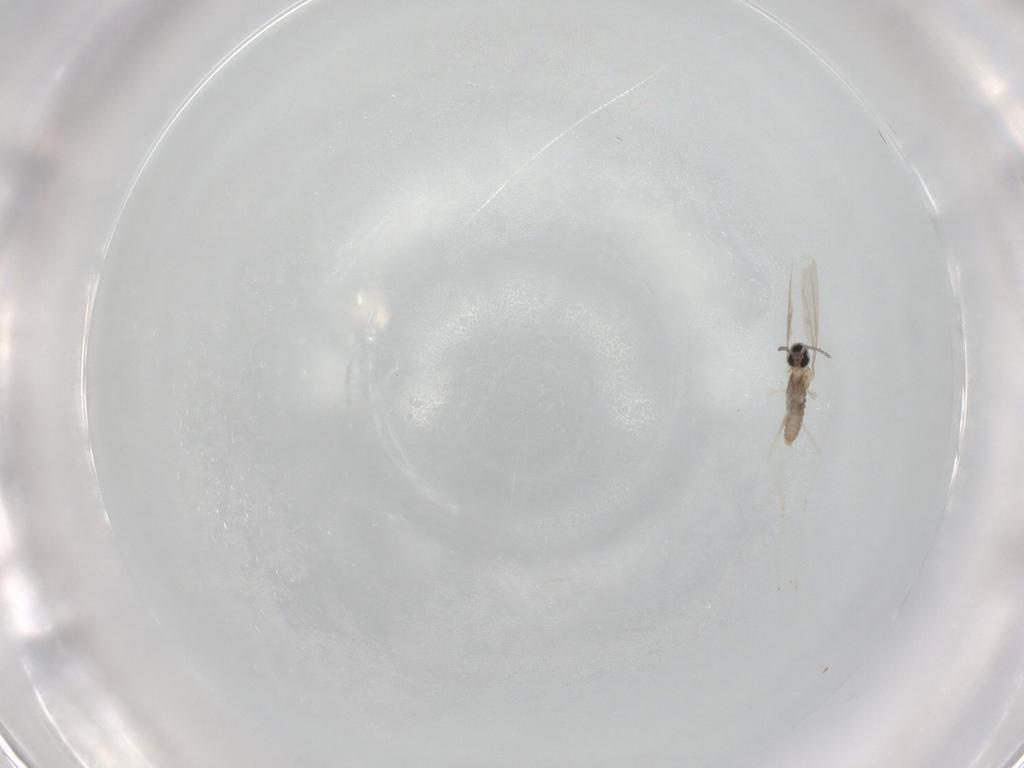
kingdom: Animalia
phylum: Arthropoda
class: Insecta
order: Diptera
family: Cecidomyiidae
